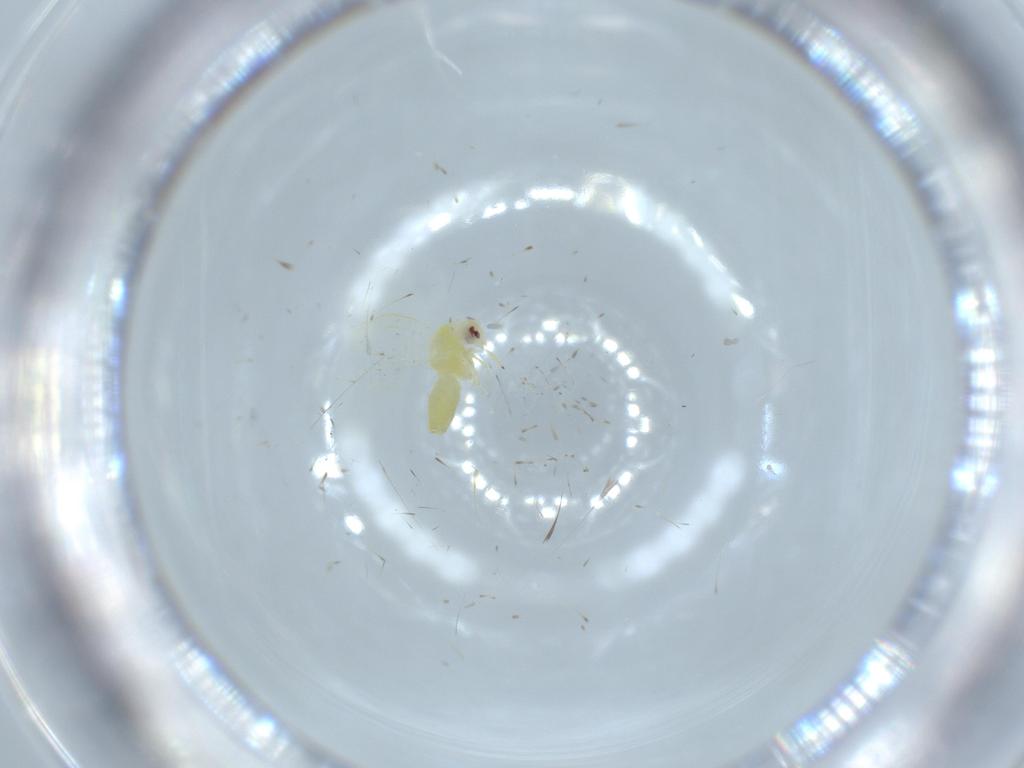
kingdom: Animalia
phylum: Arthropoda
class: Insecta
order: Hemiptera
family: Aleyrodidae
